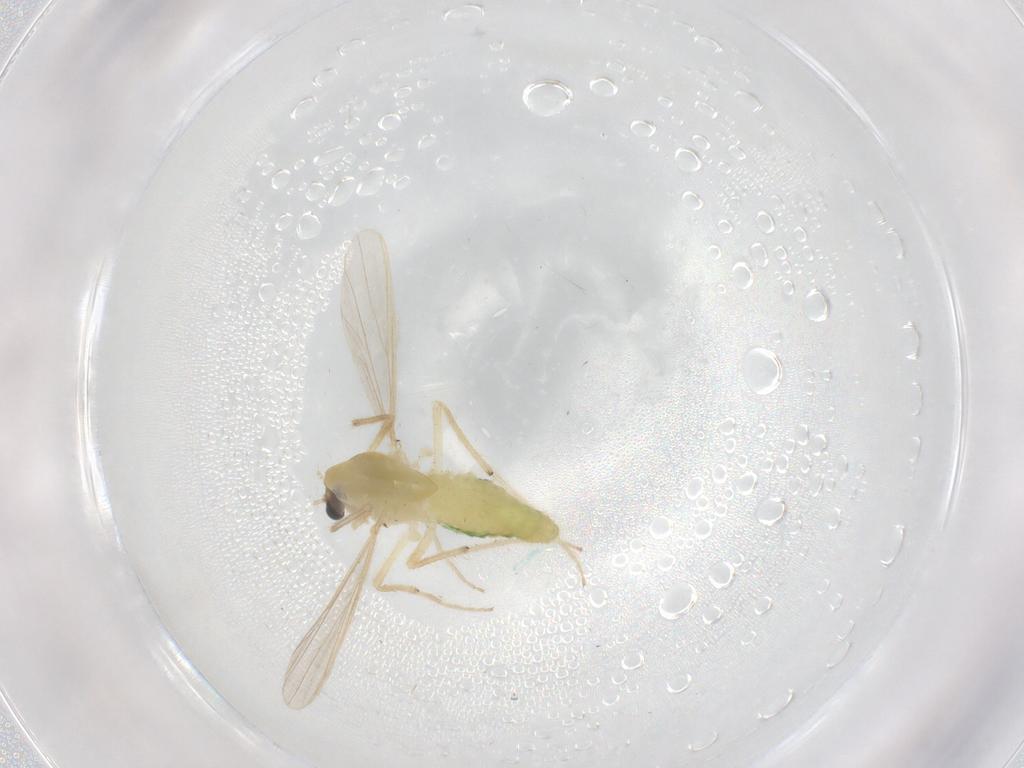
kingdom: Animalia
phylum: Arthropoda
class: Insecta
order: Diptera
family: Chironomidae
